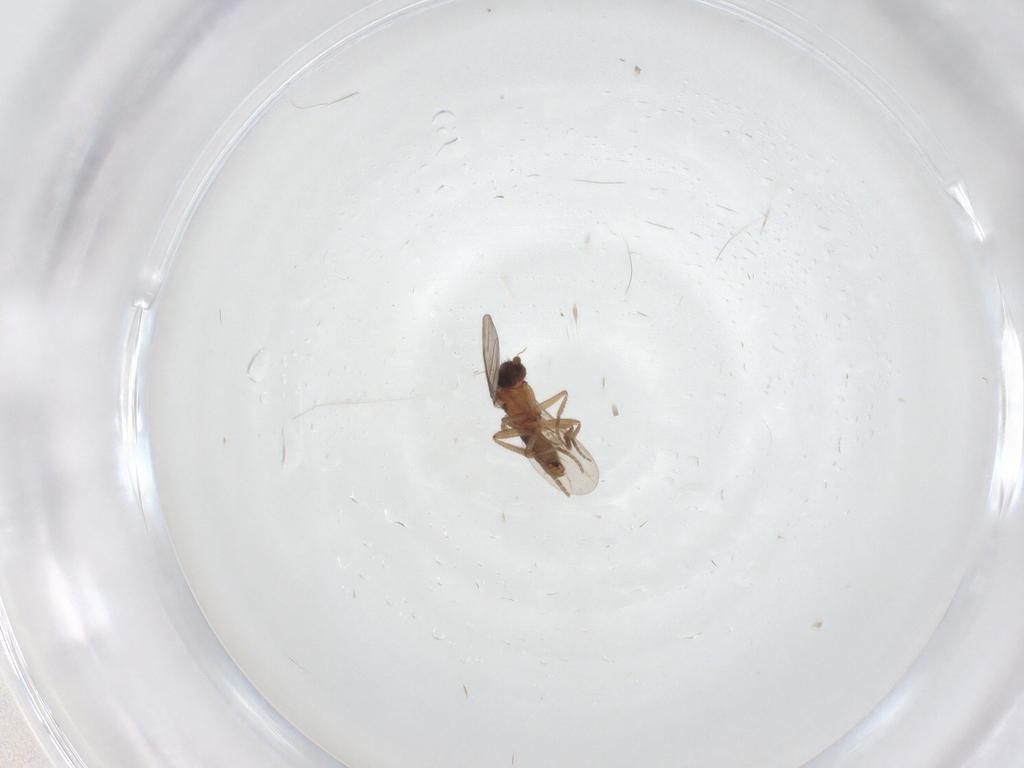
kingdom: Animalia
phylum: Arthropoda
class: Insecta
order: Diptera
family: Phoridae
